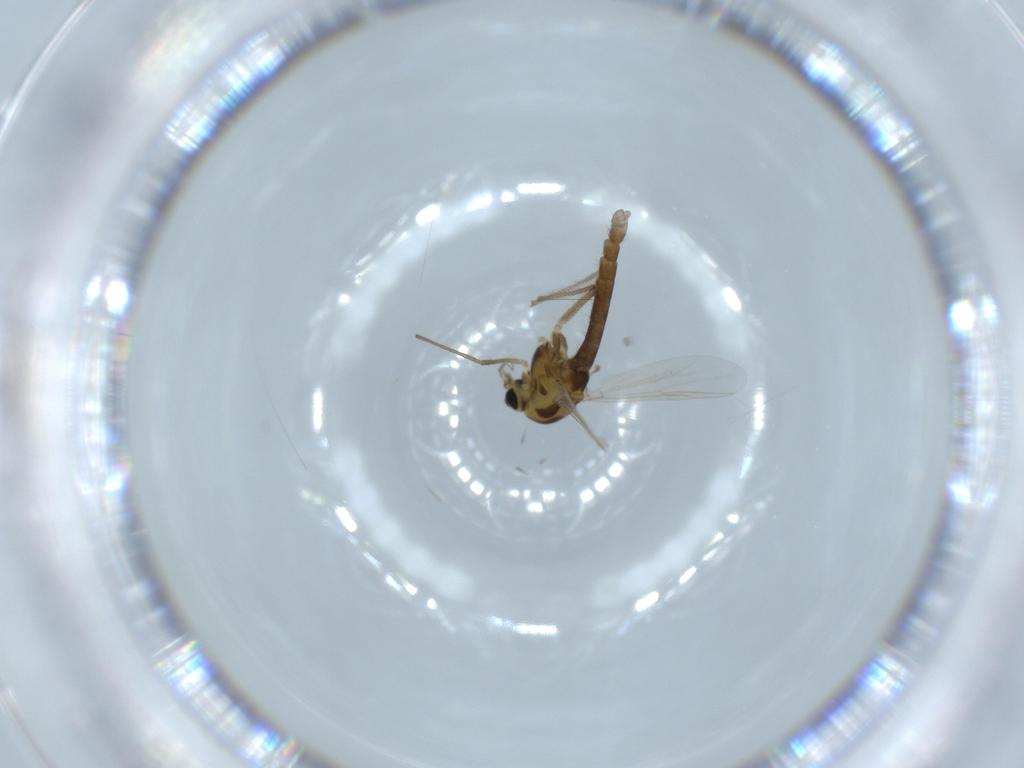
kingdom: Animalia
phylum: Arthropoda
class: Insecta
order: Diptera
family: Chironomidae
